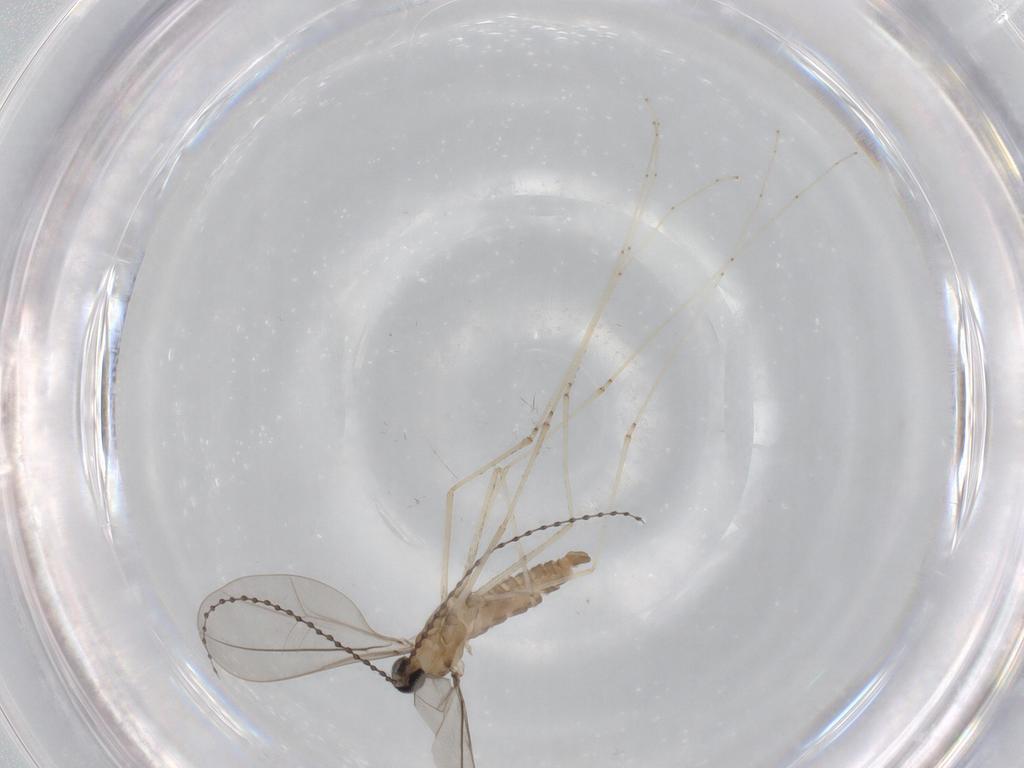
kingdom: Animalia
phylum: Arthropoda
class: Insecta
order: Diptera
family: Cecidomyiidae
